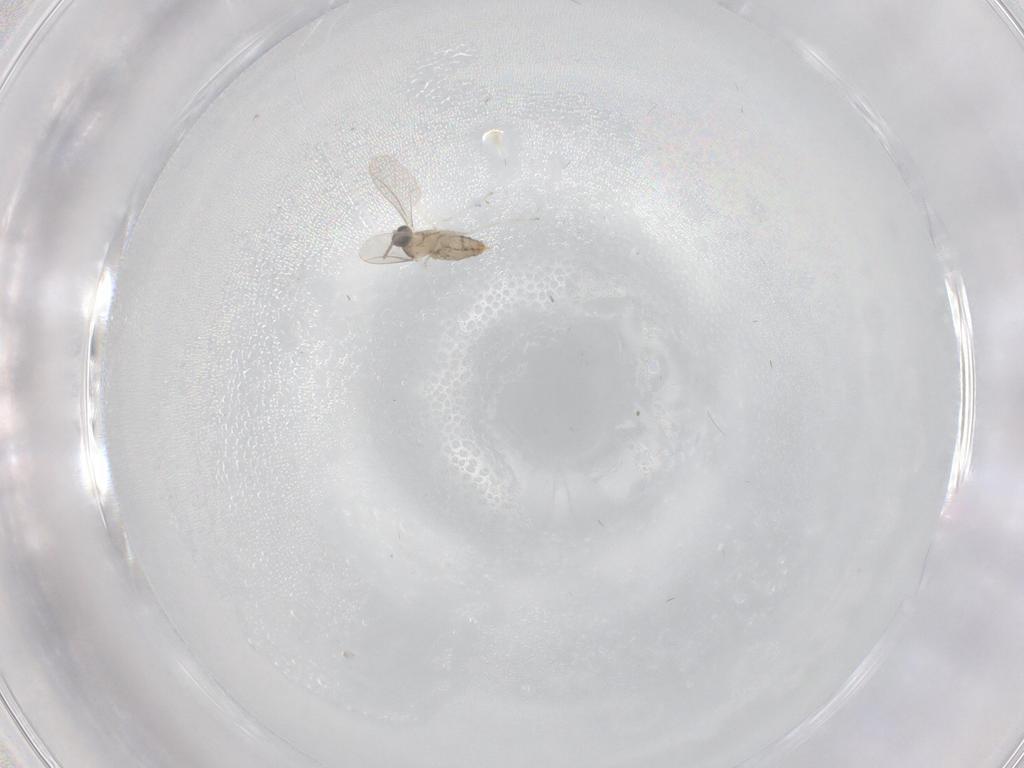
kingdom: Animalia
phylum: Arthropoda
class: Insecta
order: Diptera
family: Cecidomyiidae
